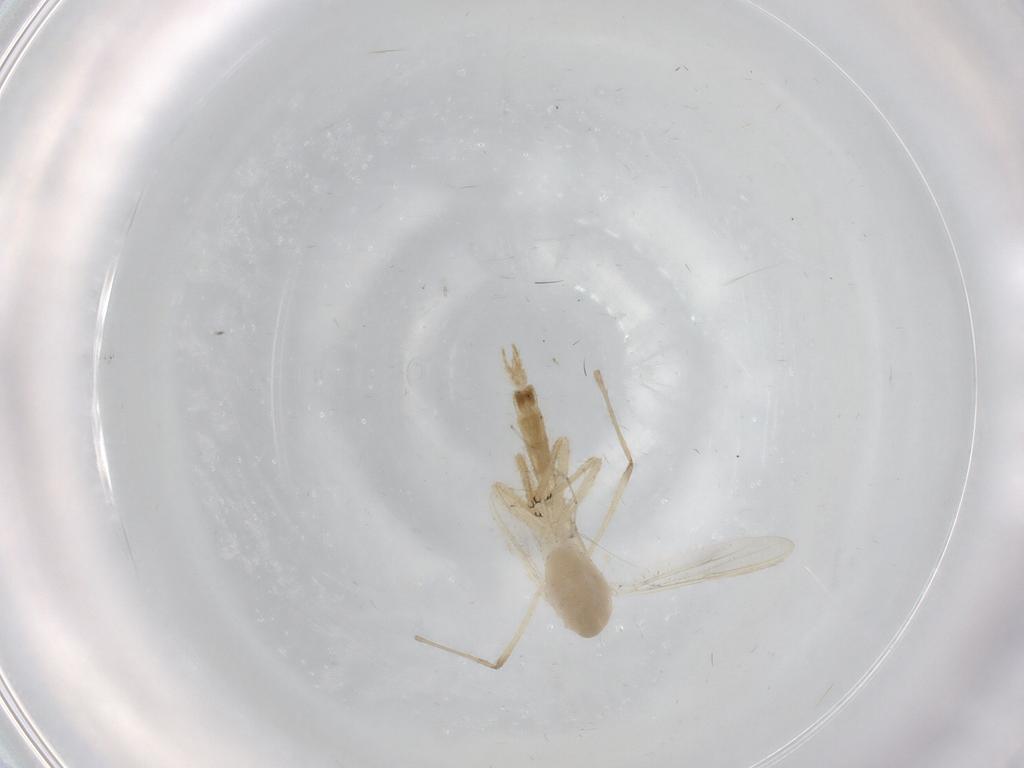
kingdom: Animalia
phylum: Arthropoda
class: Insecta
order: Diptera
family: Chironomidae
